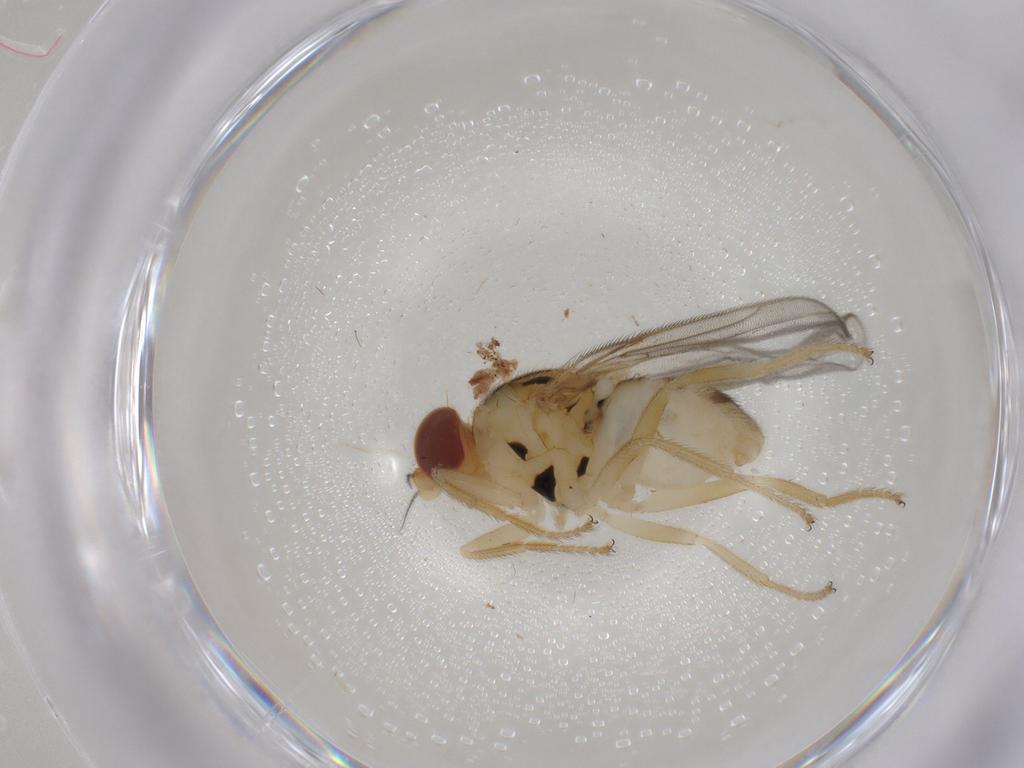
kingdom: Animalia
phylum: Arthropoda
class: Insecta
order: Diptera
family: Chloropidae
